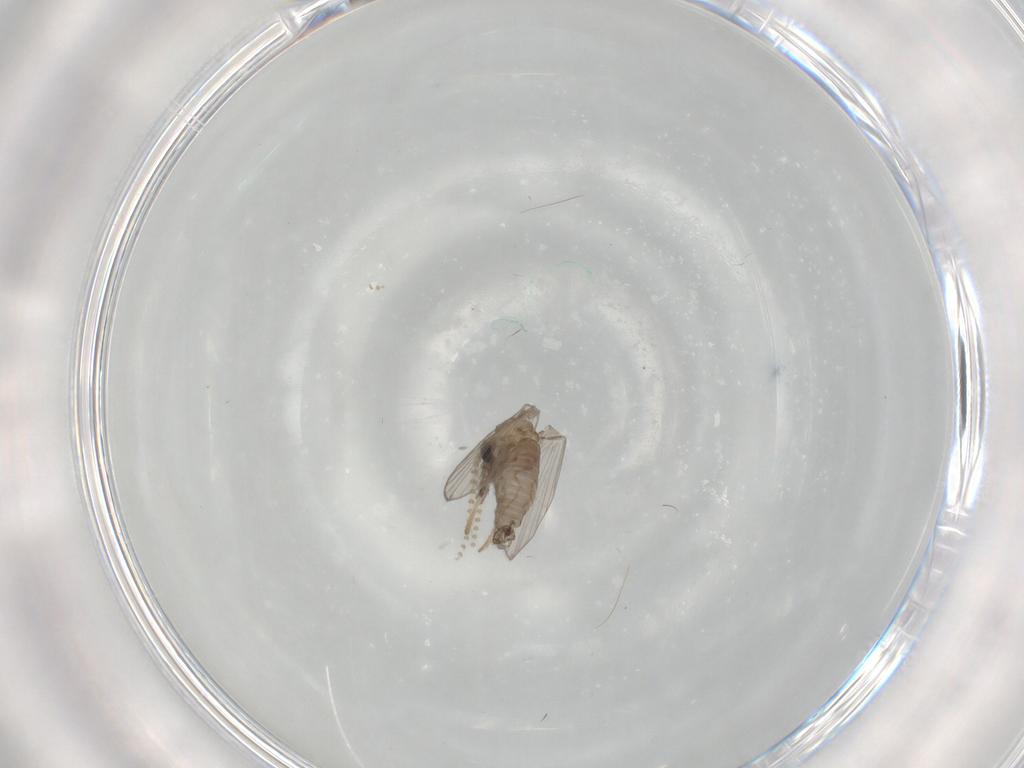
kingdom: Animalia
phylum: Arthropoda
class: Insecta
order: Diptera
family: Psychodidae
